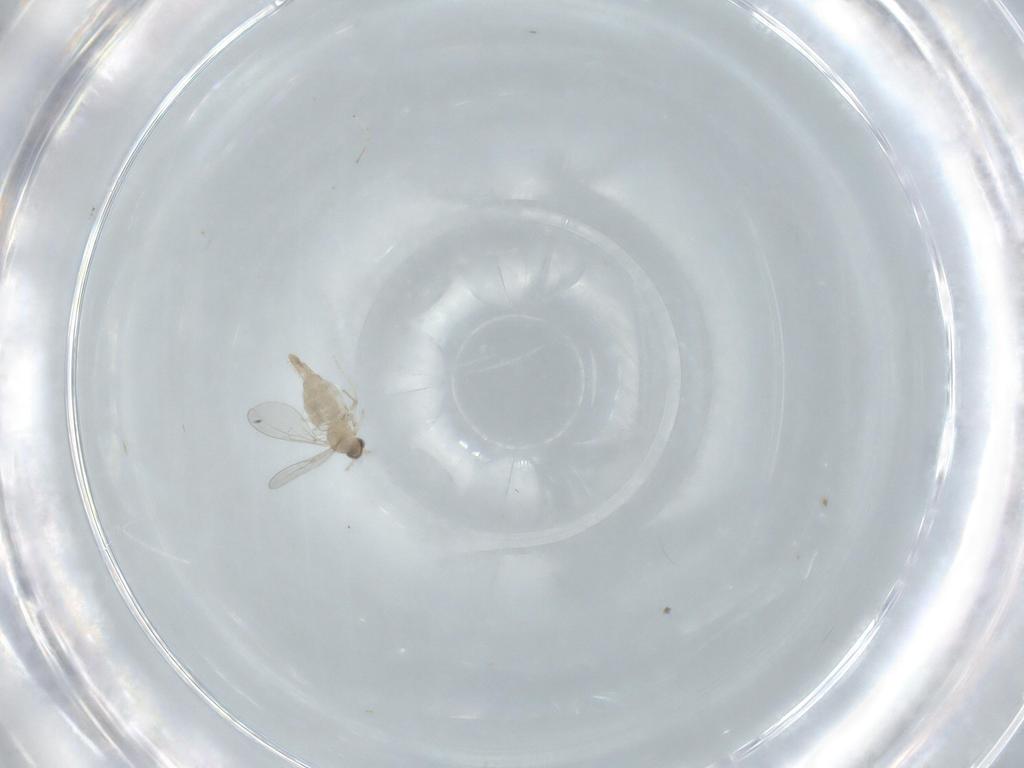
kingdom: Animalia
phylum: Arthropoda
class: Insecta
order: Diptera
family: Cecidomyiidae
